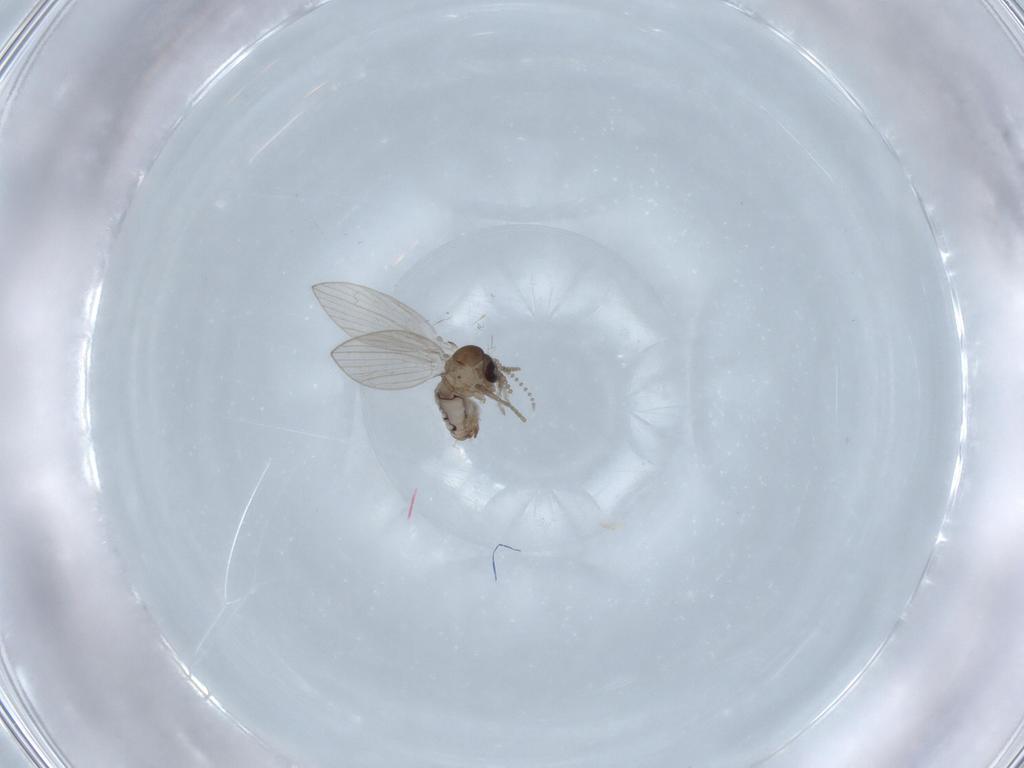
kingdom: Animalia
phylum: Arthropoda
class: Insecta
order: Diptera
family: Psychodidae
